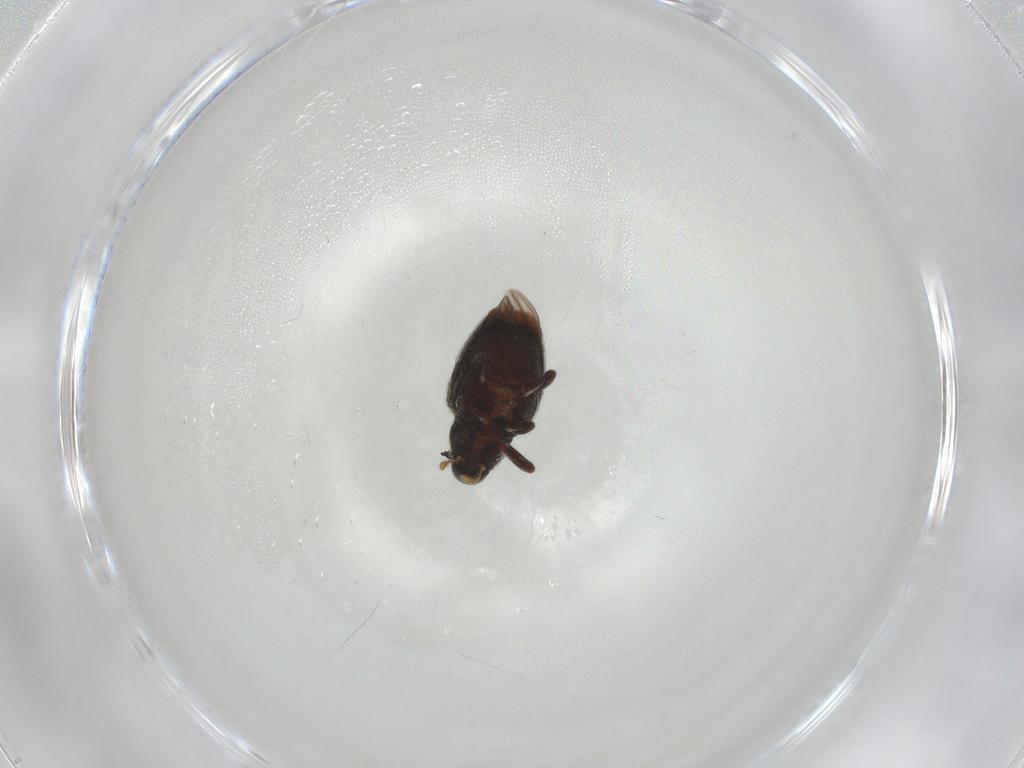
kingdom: Animalia
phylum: Arthropoda
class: Insecta
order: Coleoptera
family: Curculionidae
